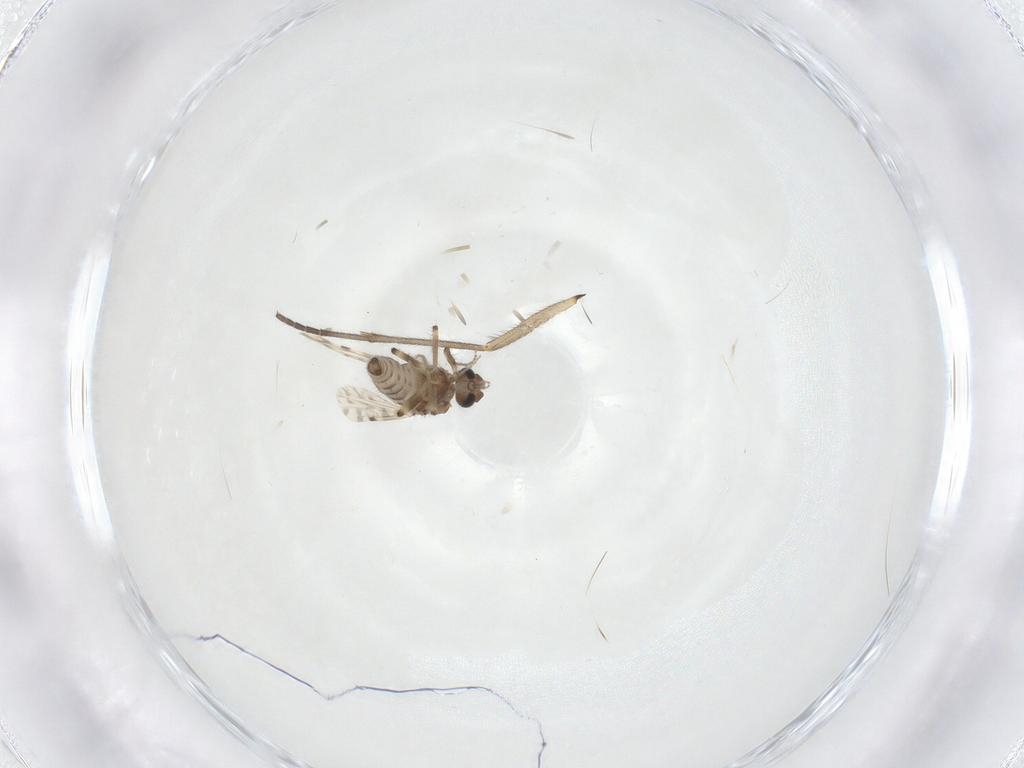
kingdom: Animalia
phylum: Arthropoda
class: Insecta
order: Diptera
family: Sciaridae
